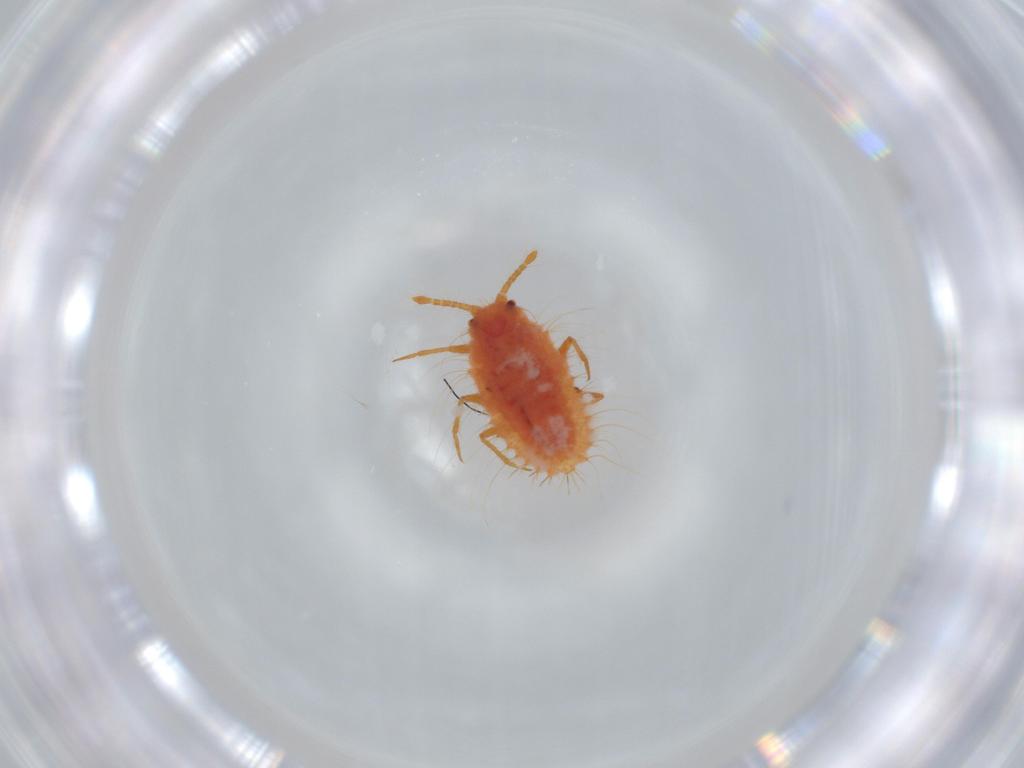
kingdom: Animalia
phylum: Arthropoda
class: Insecta
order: Hemiptera
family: Coccoidea_incertae_sedis
